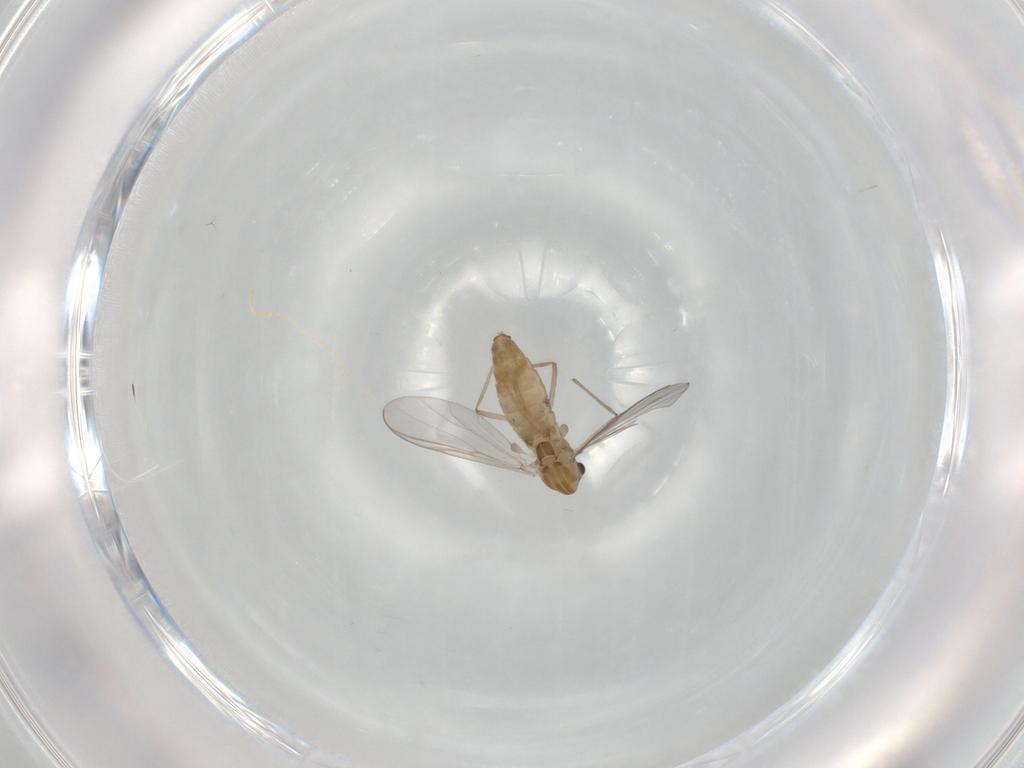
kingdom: Animalia
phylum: Arthropoda
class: Insecta
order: Diptera
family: Chironomidae
